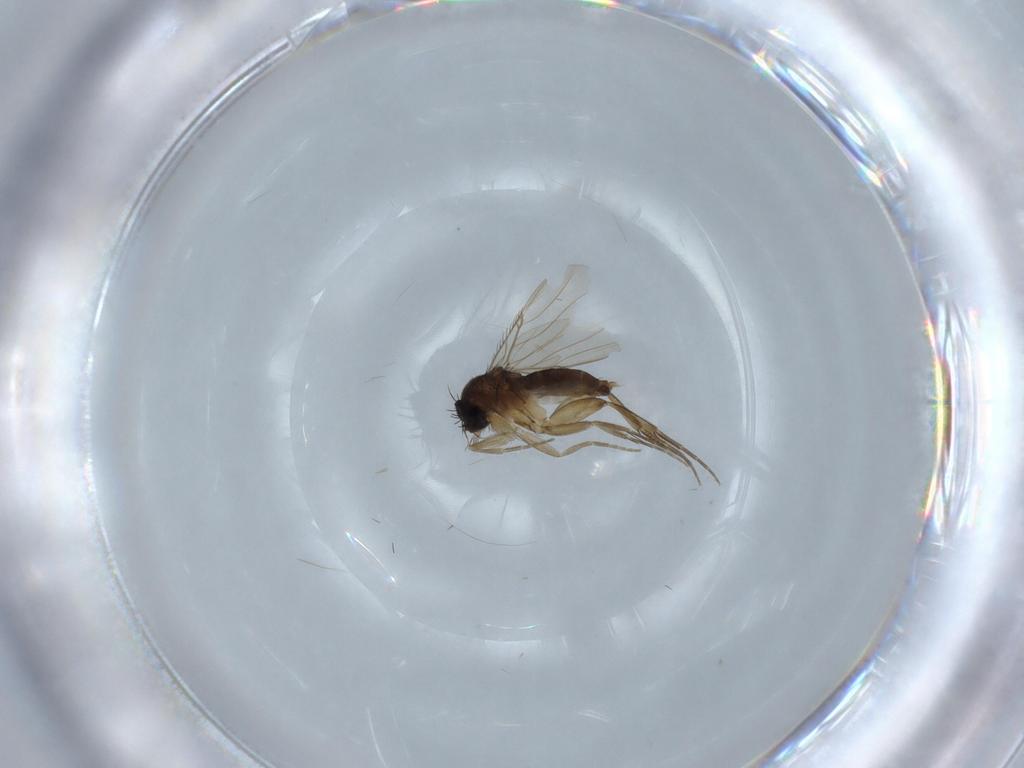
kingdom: Animalia
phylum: Arthropoda
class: Insecta
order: Diptera
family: Phoridae
